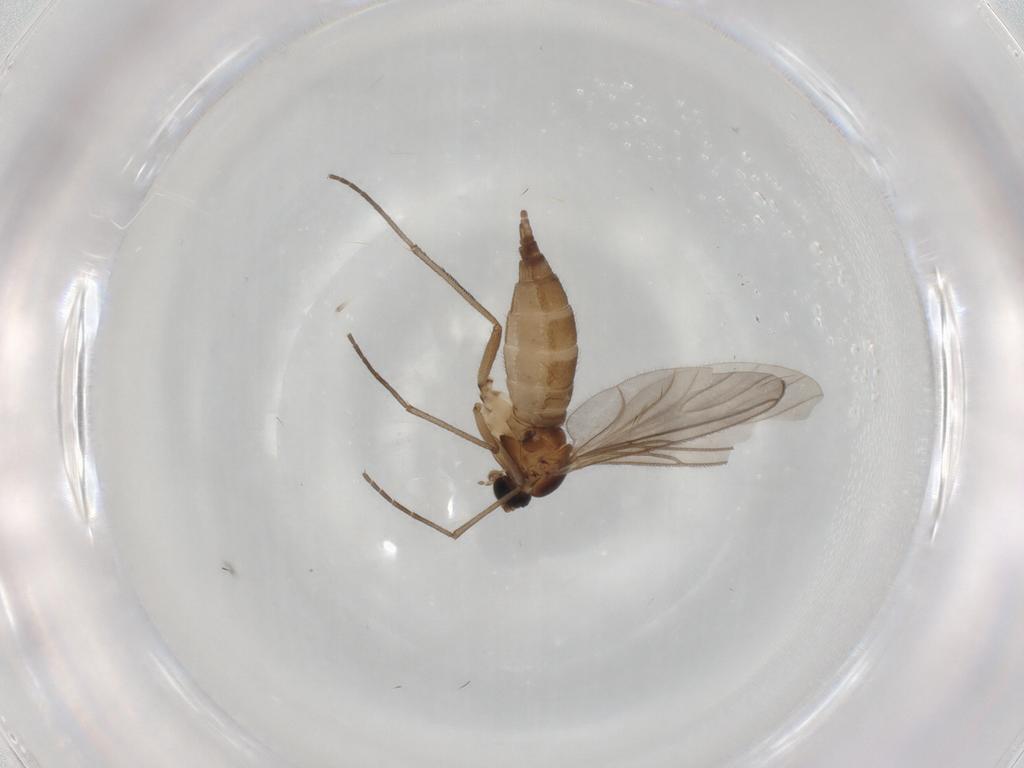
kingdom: Animalia
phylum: Arthropoda
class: Insecta
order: Diptera
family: Sciaridae
